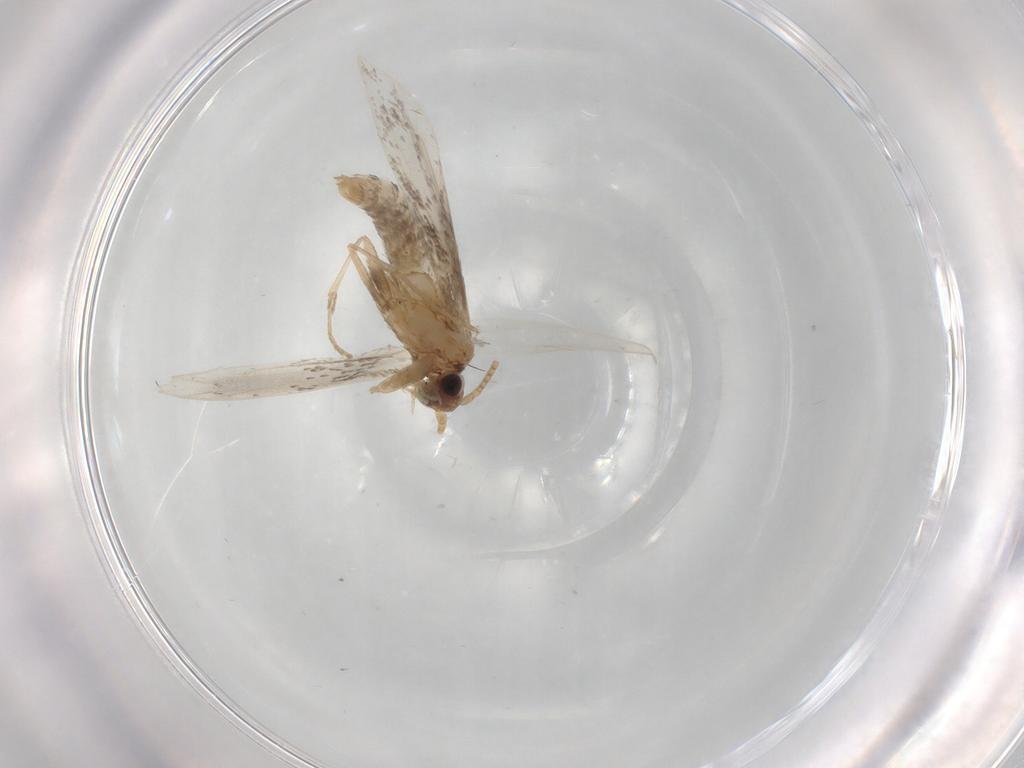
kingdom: Animalia
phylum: Arthropoda
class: Insecta
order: Lepidoptera
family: Tineidae
